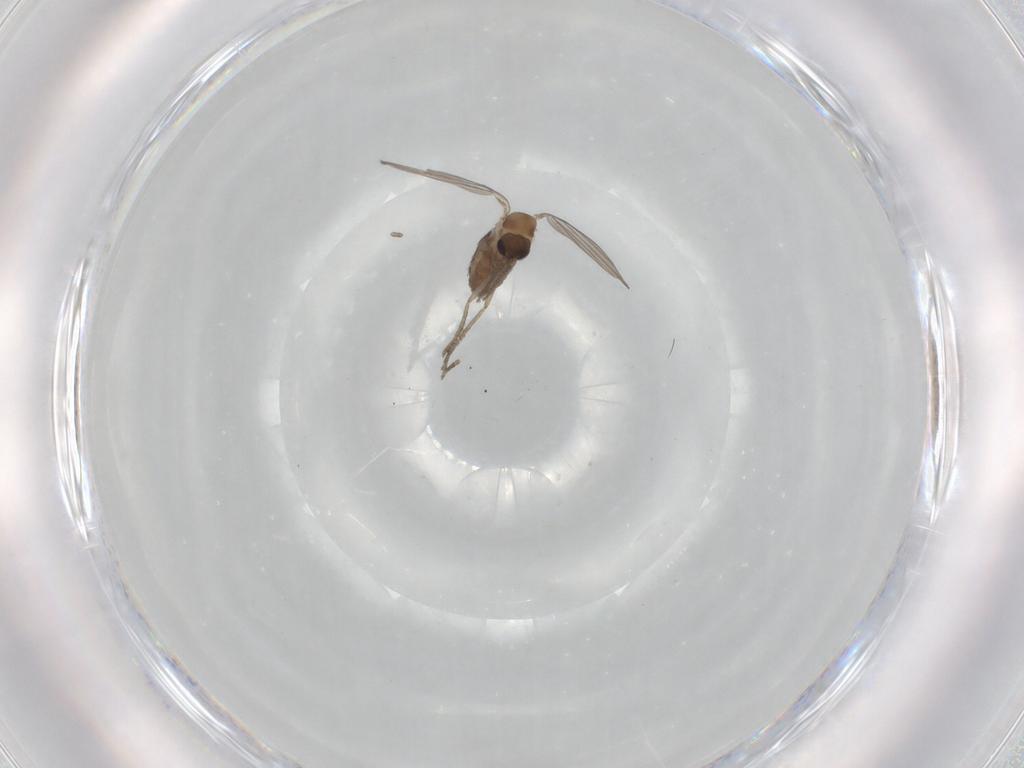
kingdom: Animalia
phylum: Arthropoda
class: Insecta
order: Diptera
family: Psychodidae
